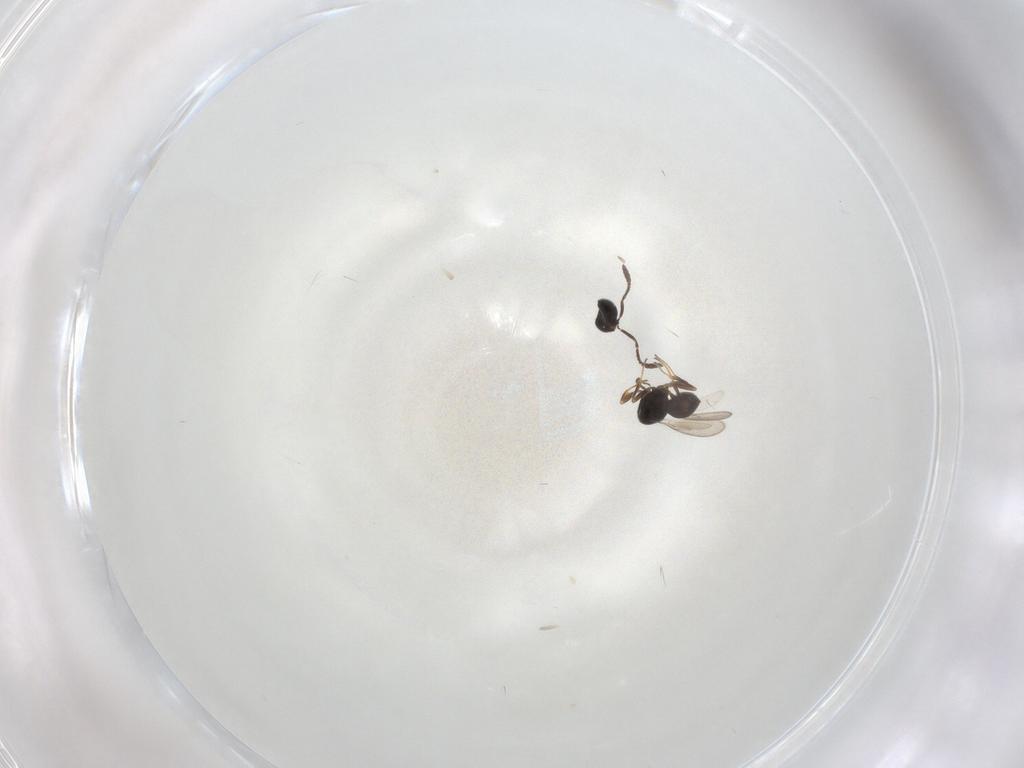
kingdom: Animalia
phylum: Arthropoda
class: Insecta
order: Hymenoptera
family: Scelionidae
